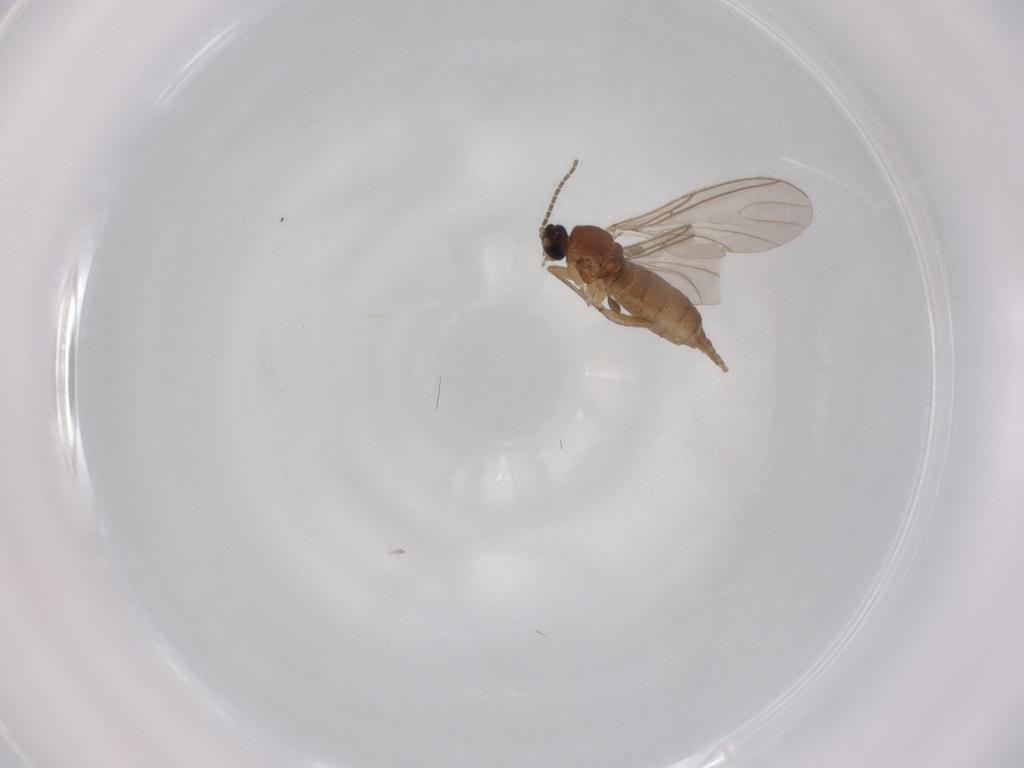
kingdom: Animalia
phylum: Arthropoda
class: Insecta
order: Diptera
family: Sciaridae
